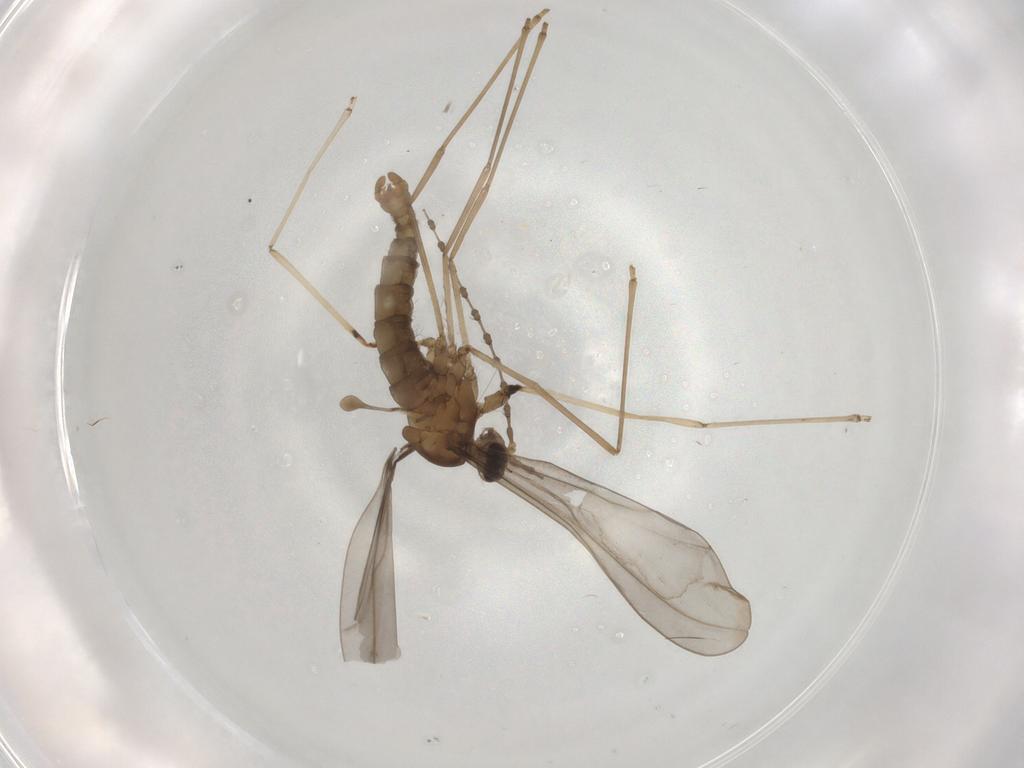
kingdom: Animalia
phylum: Arthropoda
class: Insecta
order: Diptera
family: Cecidomyiidae
